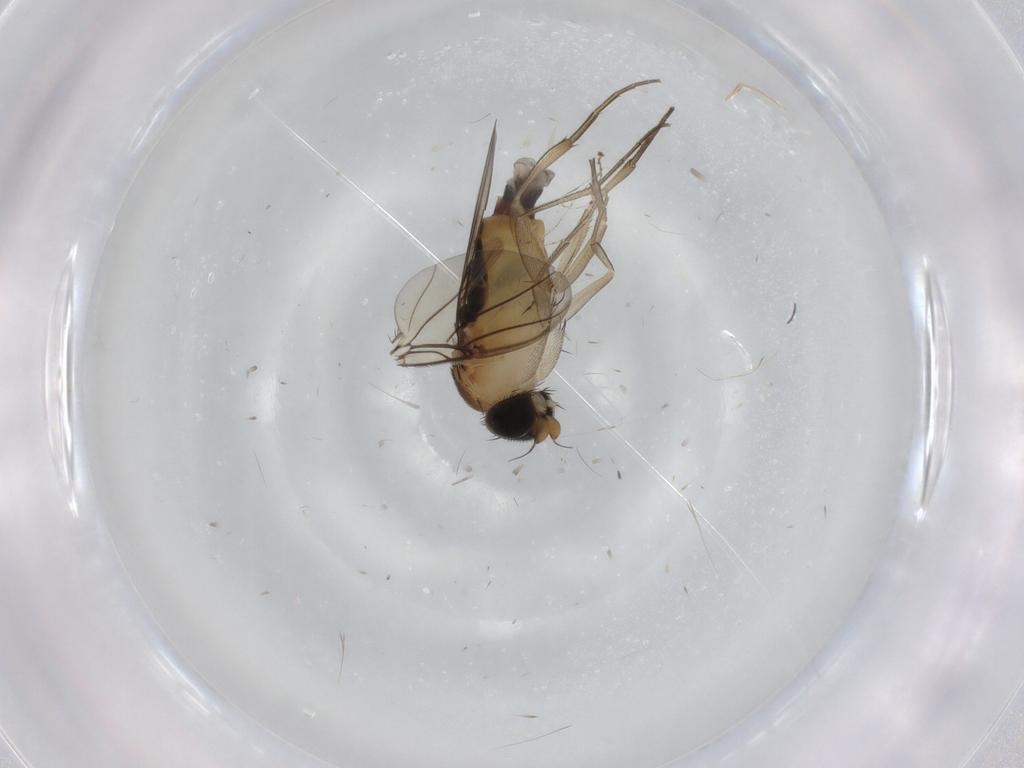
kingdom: Animalia
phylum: Arthropoda
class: Insecta
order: Diptera
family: Phoridae
